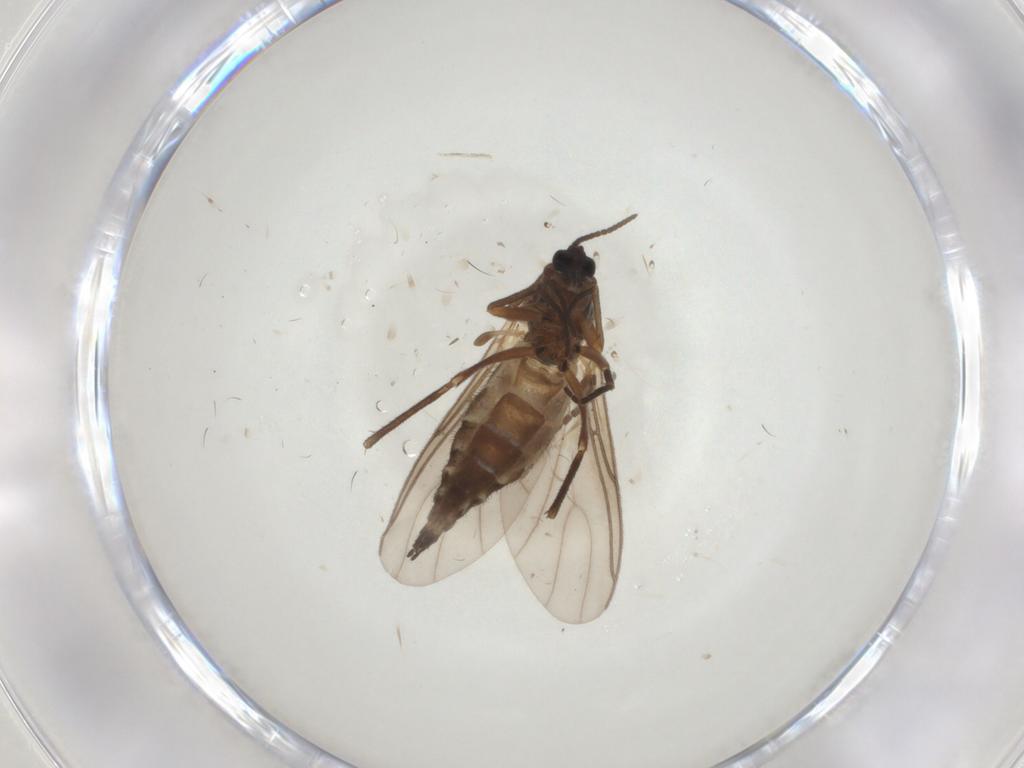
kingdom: Animalia
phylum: Arthropoda
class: Insecta
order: Diptera
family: Sciaridae
